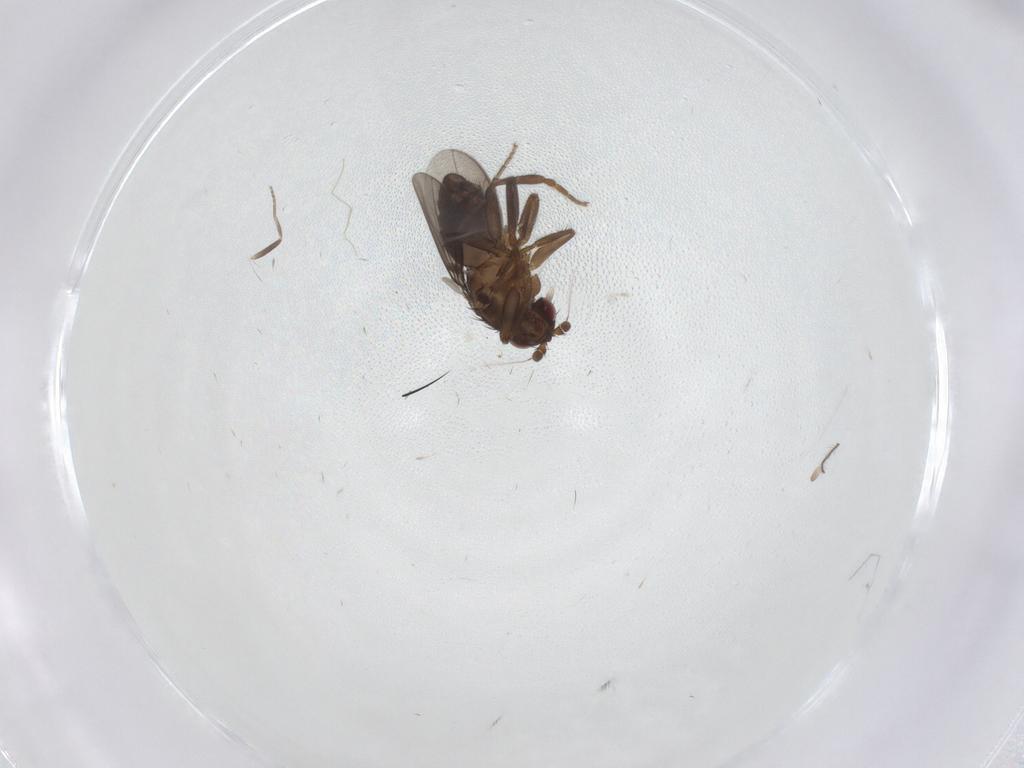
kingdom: Animalia
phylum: Arthropoda
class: Insecta
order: Diptera
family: Ceratopogonidae
